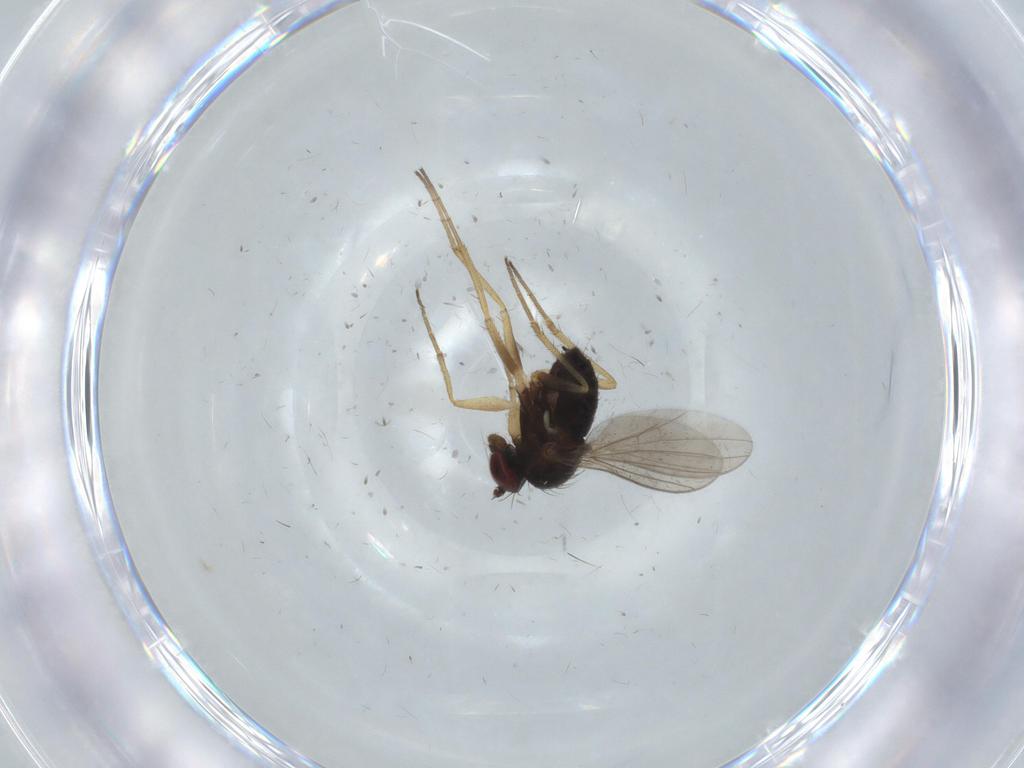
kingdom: Animalia
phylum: Arthropoda
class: Insecta
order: Diptera
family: Dolichopodidae
